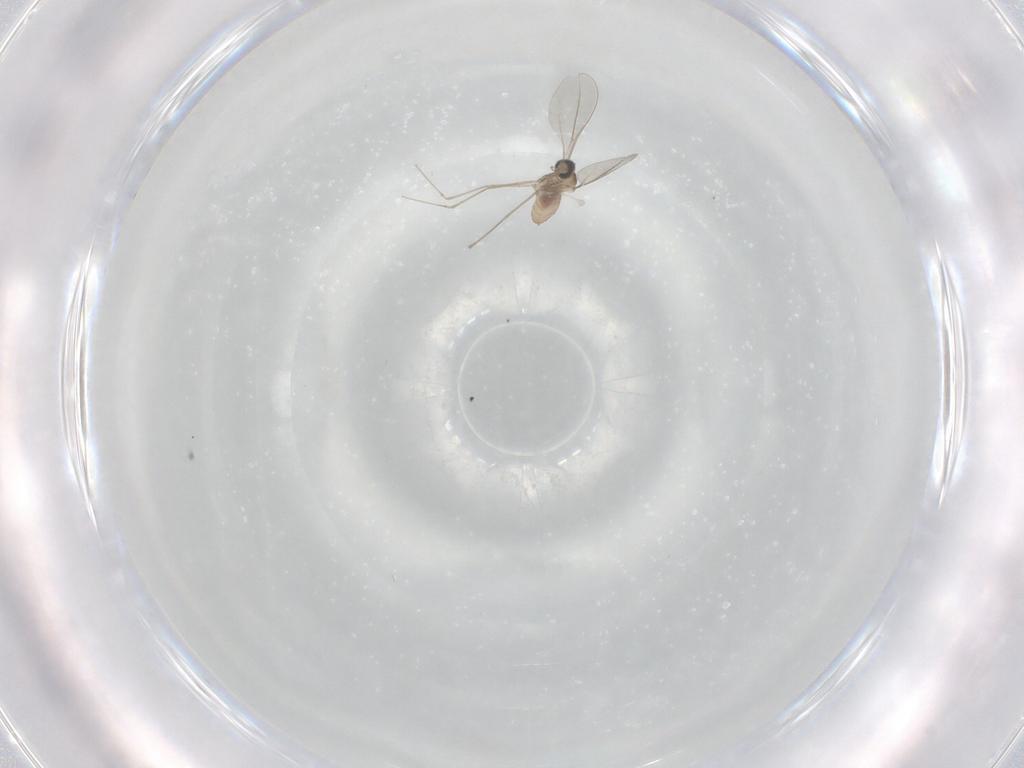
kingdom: Animalia
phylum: Arthropoda
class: Insecta
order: Diptera
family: Cecidomyiidae
